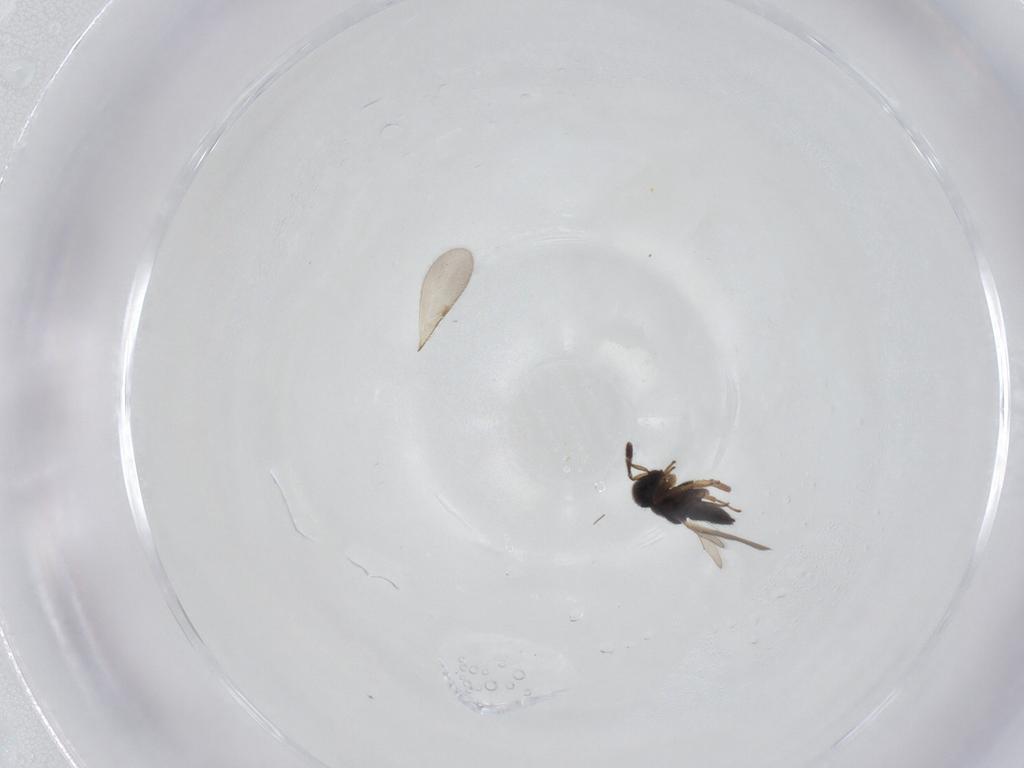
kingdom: Animalia
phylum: Arthropoda
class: Insecta
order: Hymenoptera
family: Encyrtidae
